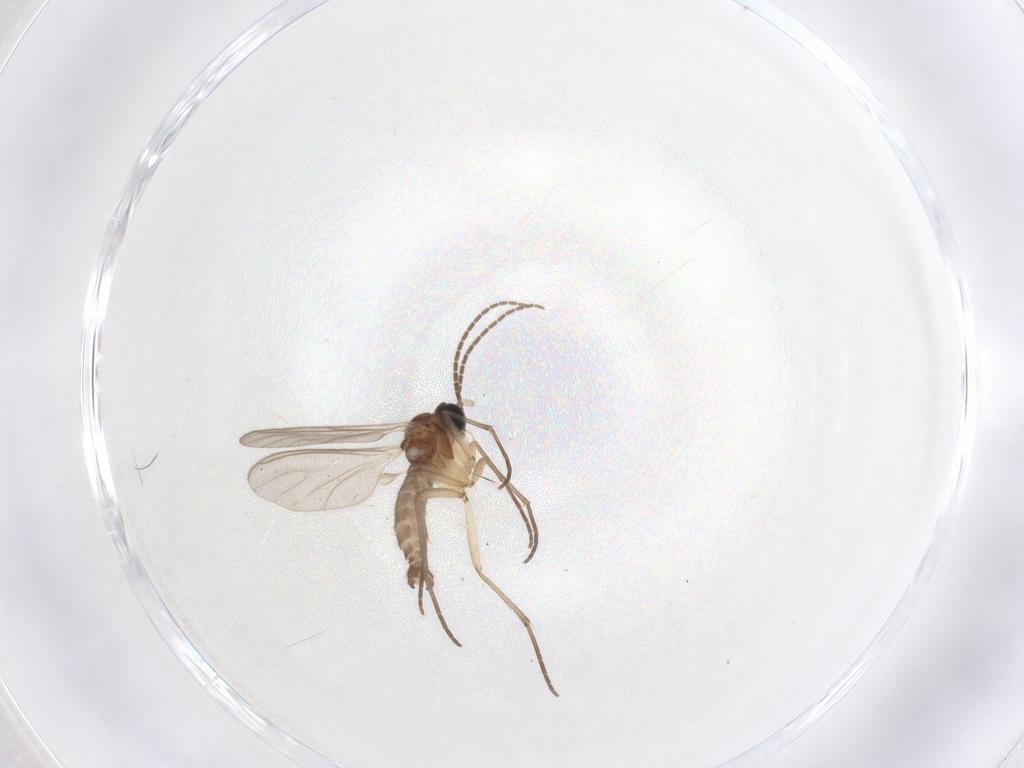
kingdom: Animalia
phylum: Arthropoda
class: Insecta
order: Diptera
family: Sciaridae
